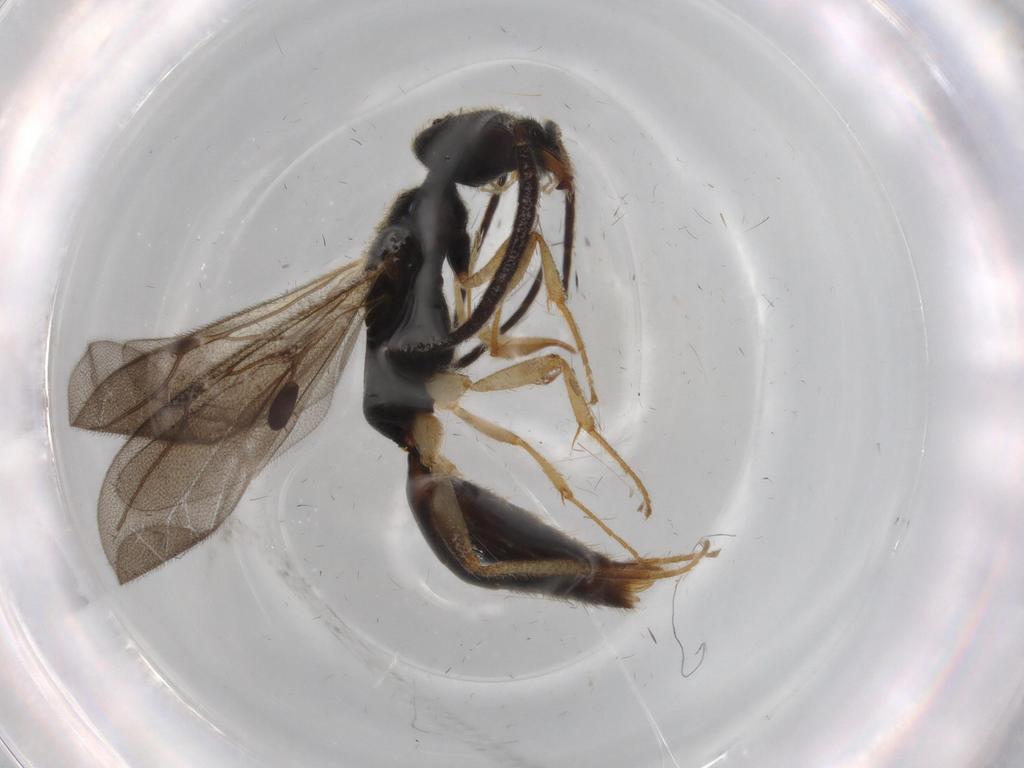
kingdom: Animalia
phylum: Arthropoda
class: Insecta
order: Hymenoptera
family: Bethylidae
